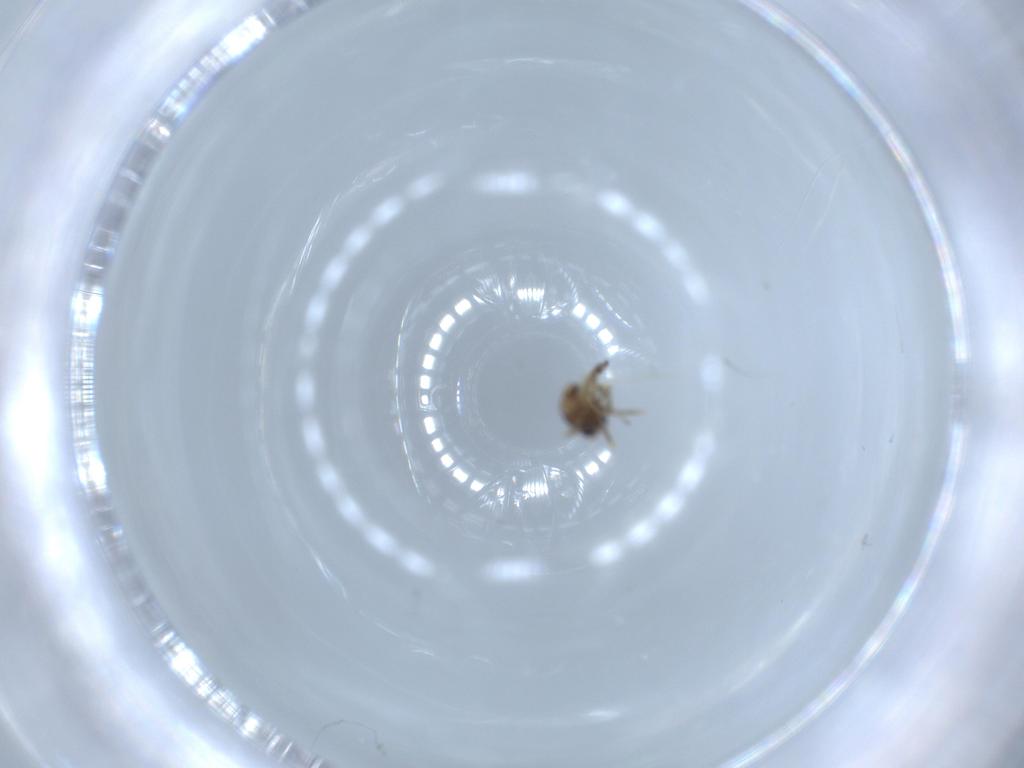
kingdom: Animalia
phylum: Arthropoda
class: Insecta
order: Diptera
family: Ceratopogonidae
